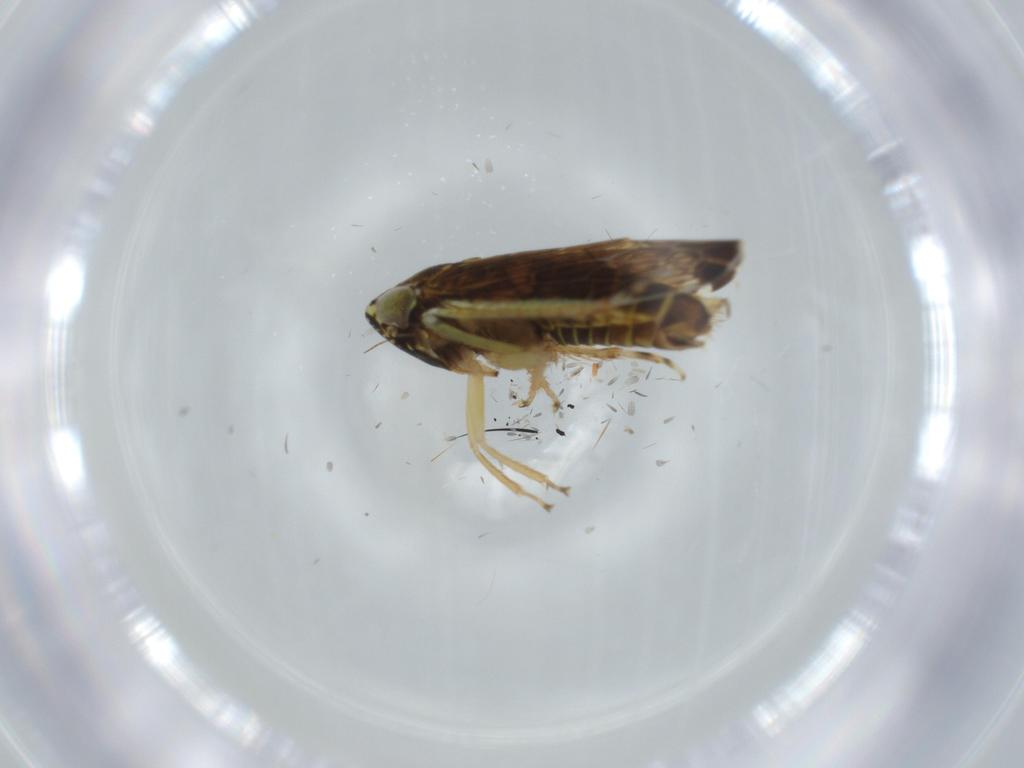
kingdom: Animalia
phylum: Arthropoda
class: Insecta
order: Hemiptera
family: Cicadellidae
